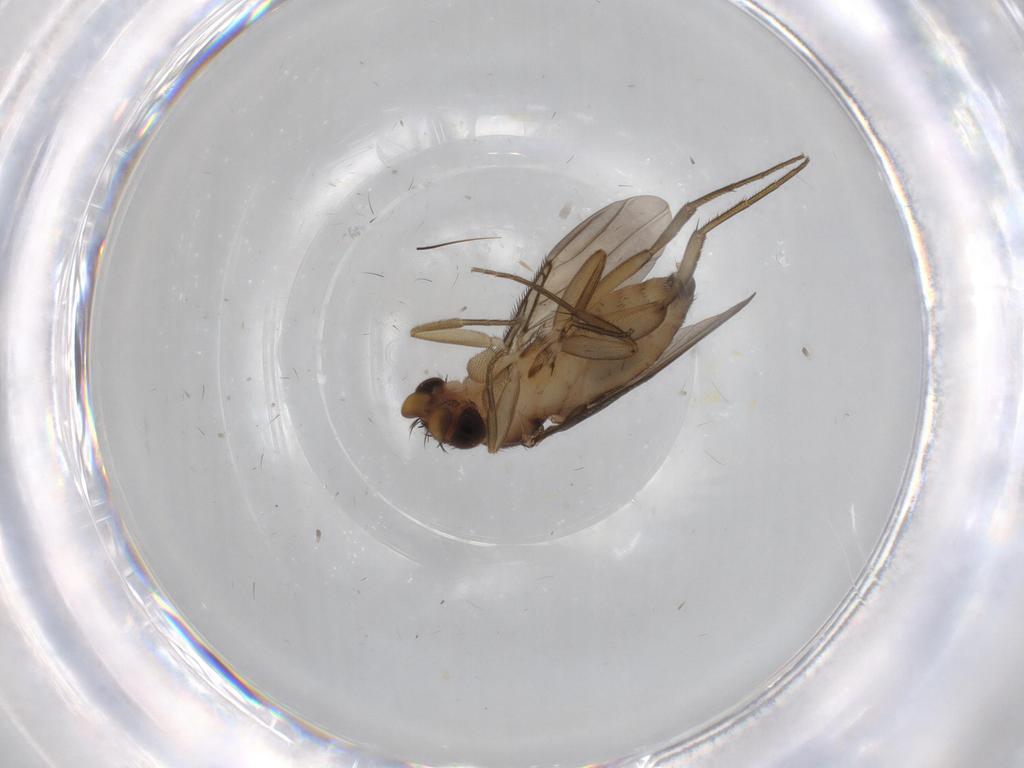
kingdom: Animalia
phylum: Arthropoda
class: Insecta
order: Diptera
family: Phoridae
